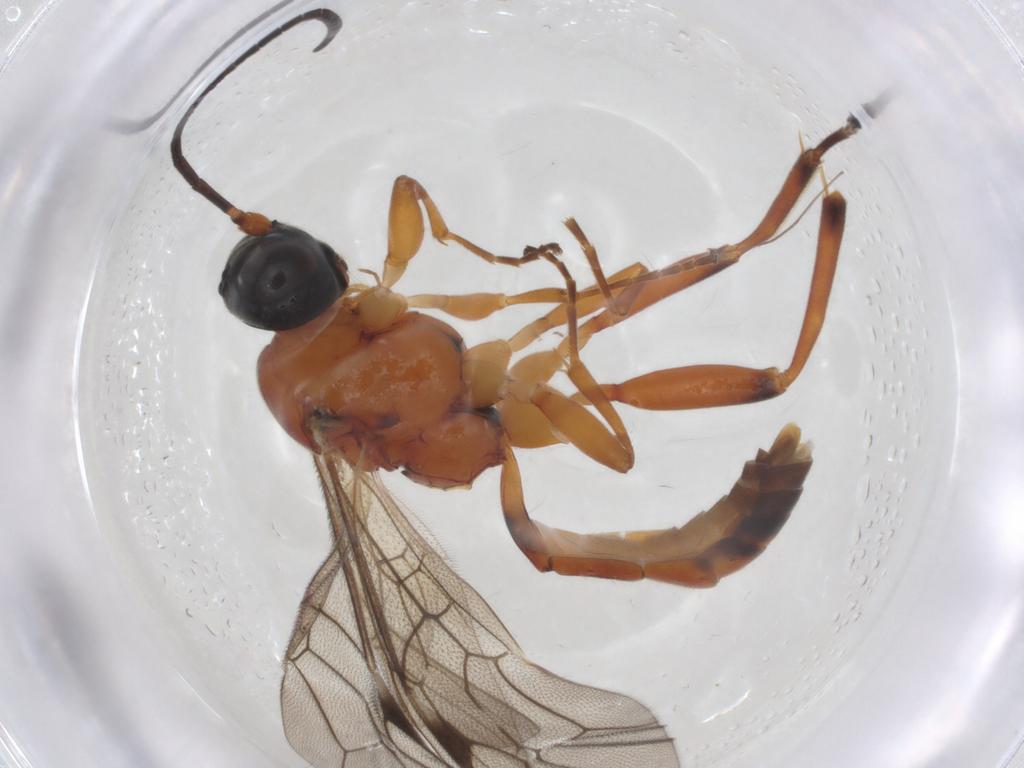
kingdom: Animalia
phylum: Arthropoda
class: Insecta
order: Hymenoptera
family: Ichneumonidae
